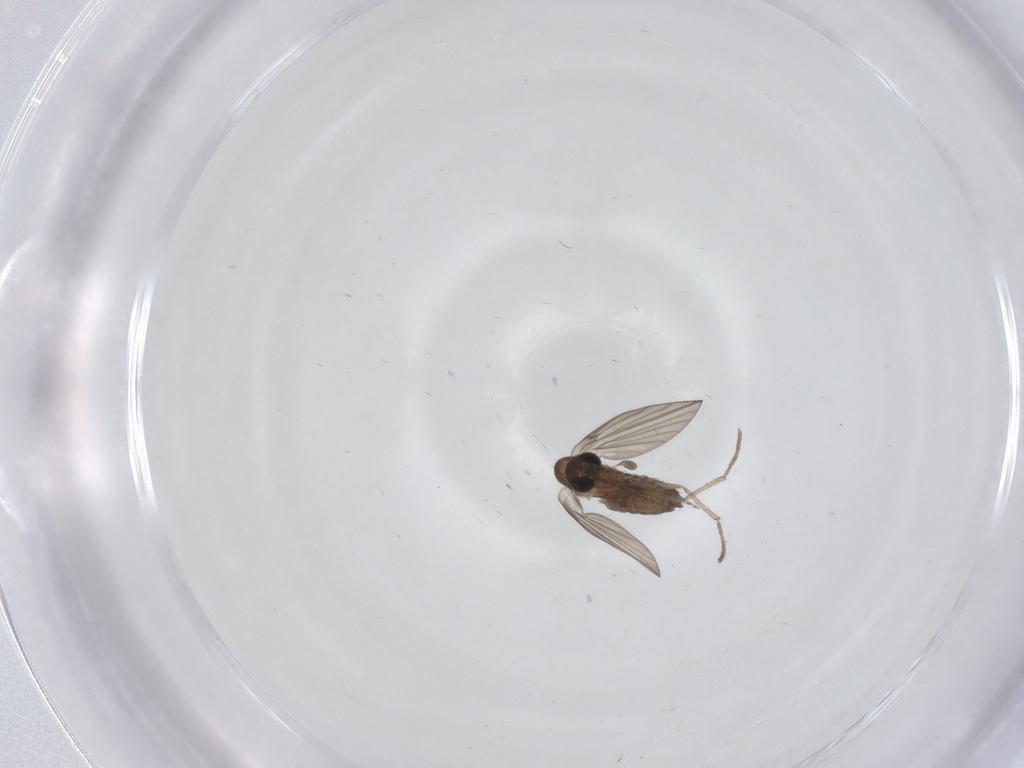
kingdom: Animalia
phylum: Arthropoda
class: Insecta
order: Diptera
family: Psychodidae
